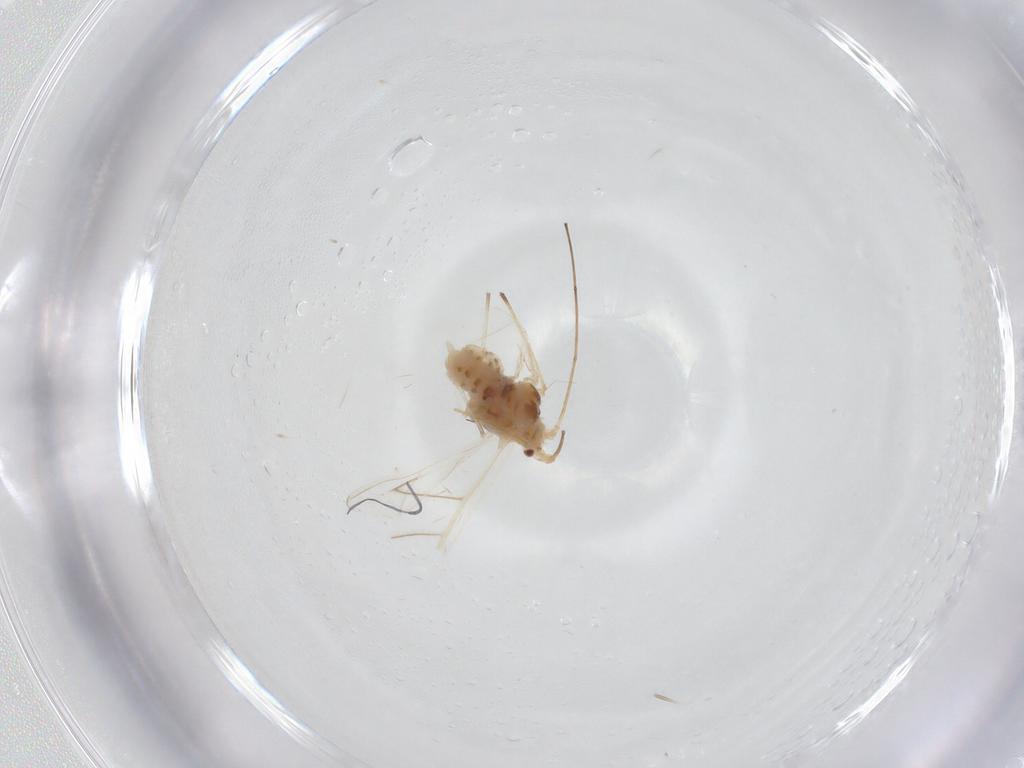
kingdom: Animalia
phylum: Arthropoda
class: Insecta
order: Hemiptera
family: Aphididae
